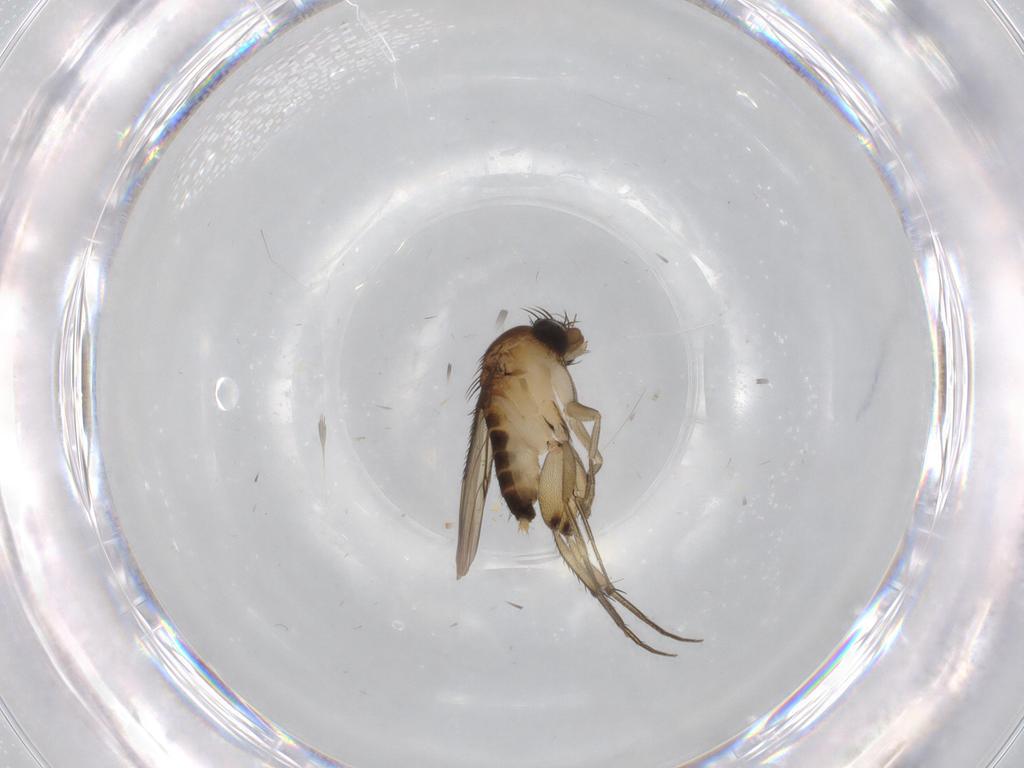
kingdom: Animalia
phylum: Arthropoda
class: Insecta
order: Diptera
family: Phoridae
